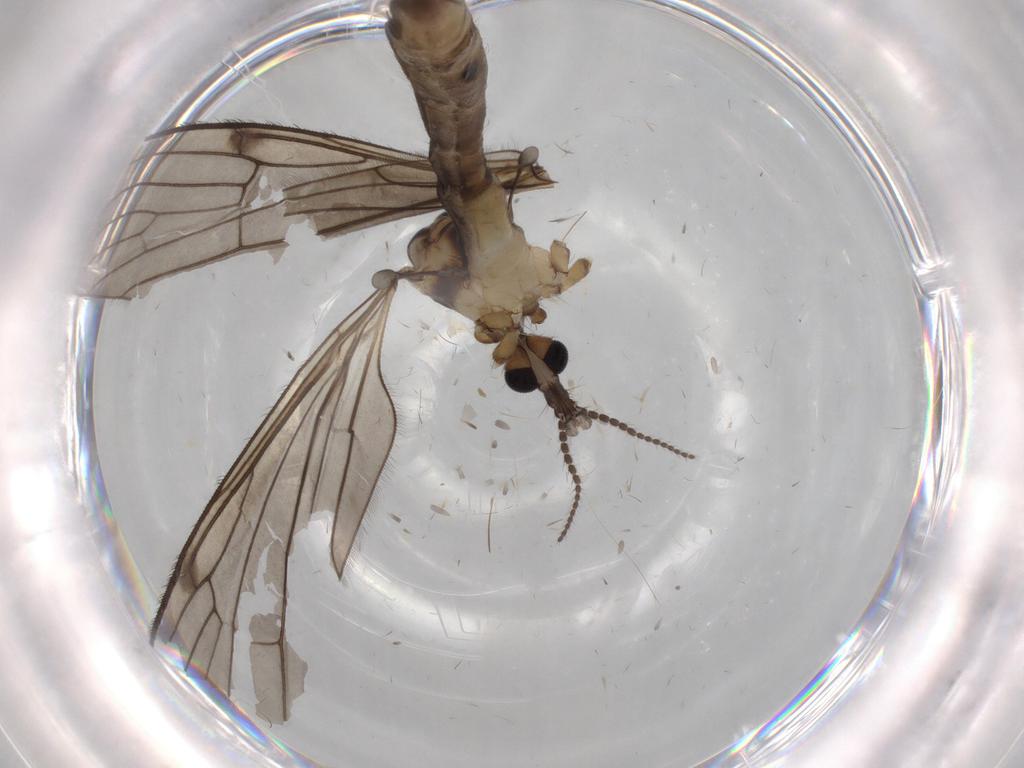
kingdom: Animalia
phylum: Arthropoda
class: Insecta
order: Diptera
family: Limoniidae
